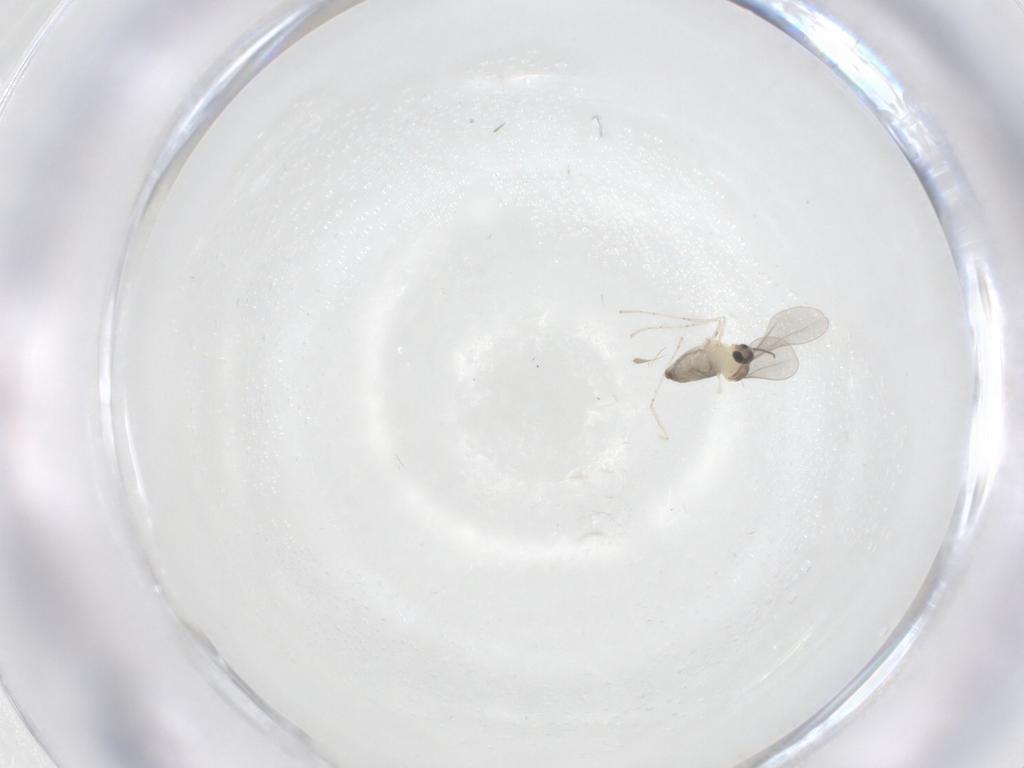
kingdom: Animalia
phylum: Arthropoda
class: Insecta
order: Diptera
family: Cecidomyiidae
